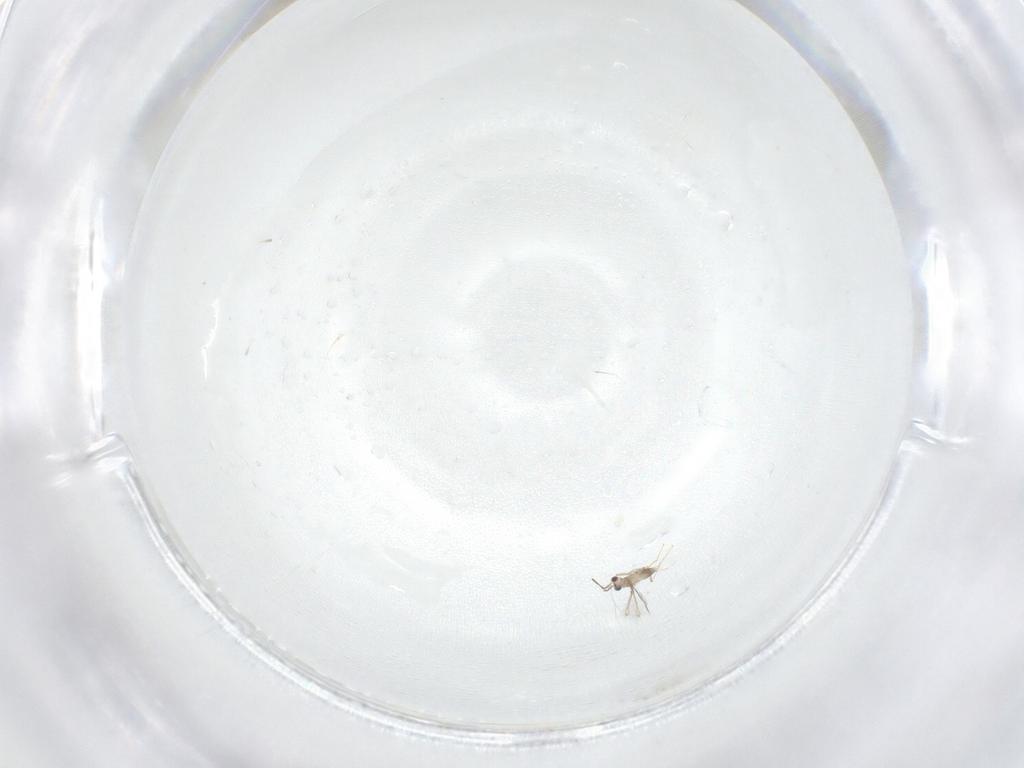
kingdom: Animalia
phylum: Arthropoda
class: Insecta
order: Hymenoptera
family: Mymaridae
